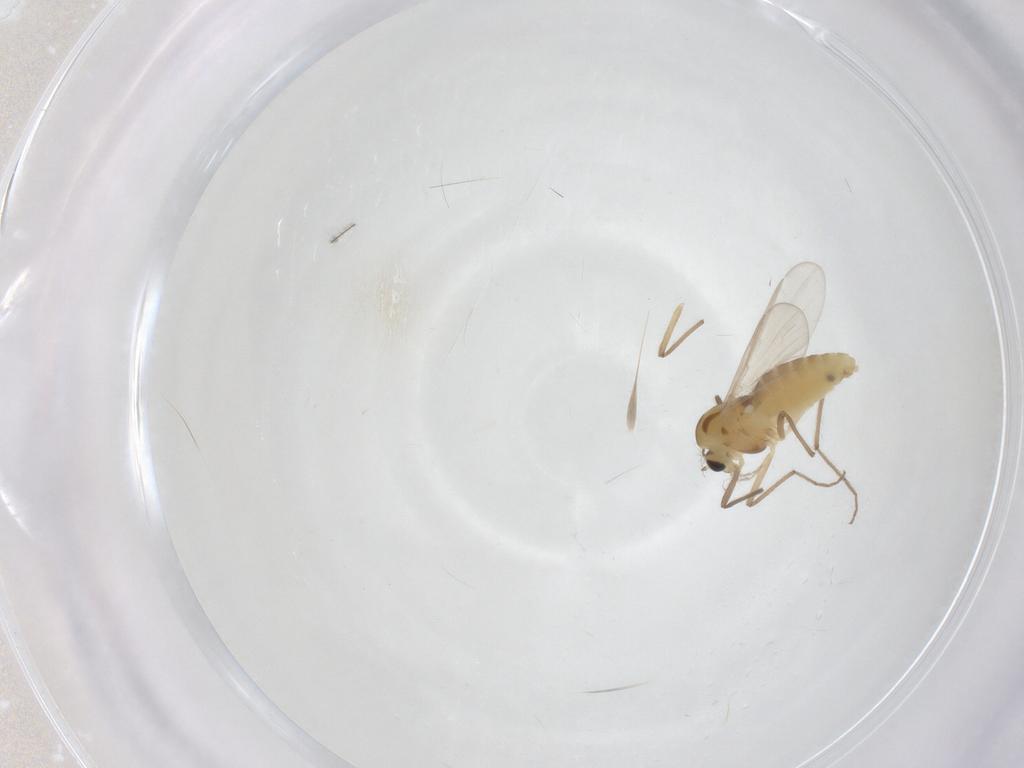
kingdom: Animalia
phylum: Arthropoda
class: Insecta
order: Diptera
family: Chironomidae
